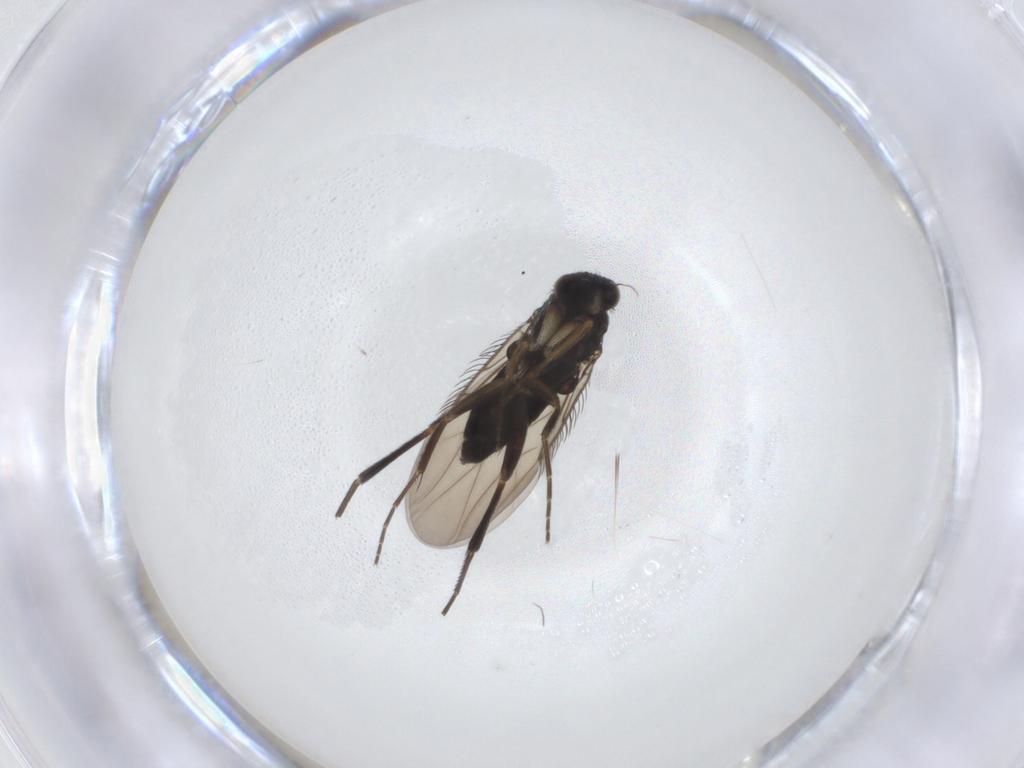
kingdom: Animalia
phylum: Arthropoda
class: Insecta
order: Diptera
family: Phoridae
